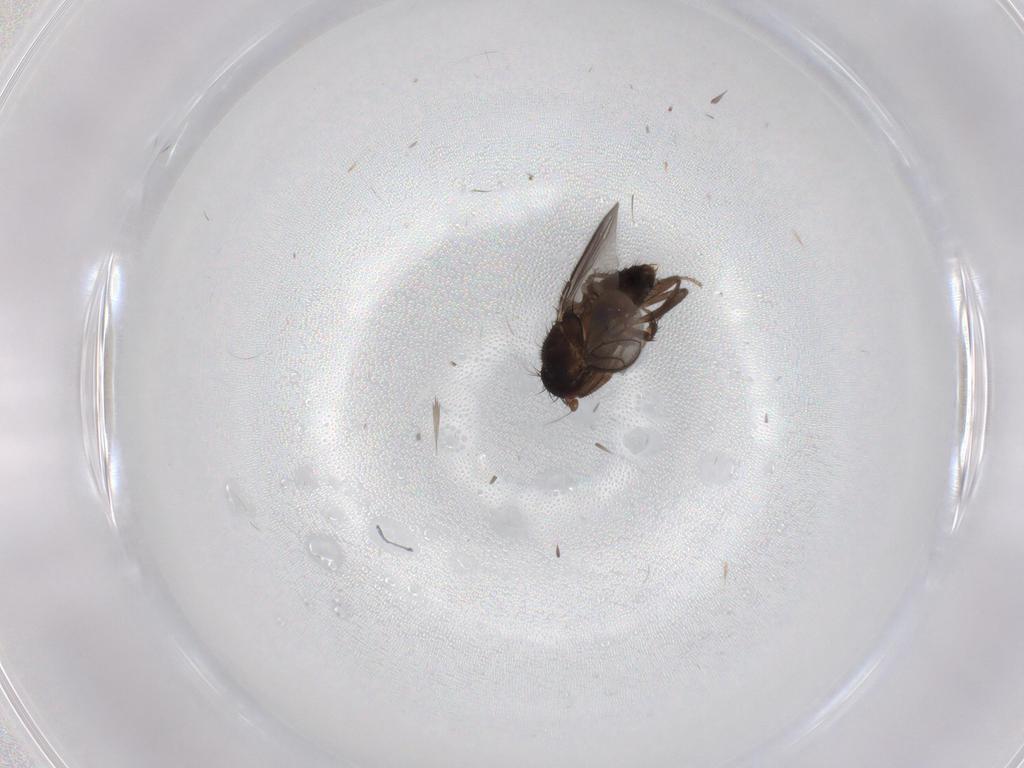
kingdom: Animalia
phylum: Arthropoda
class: Insecta
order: Diptera
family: Sphaeroceridae
